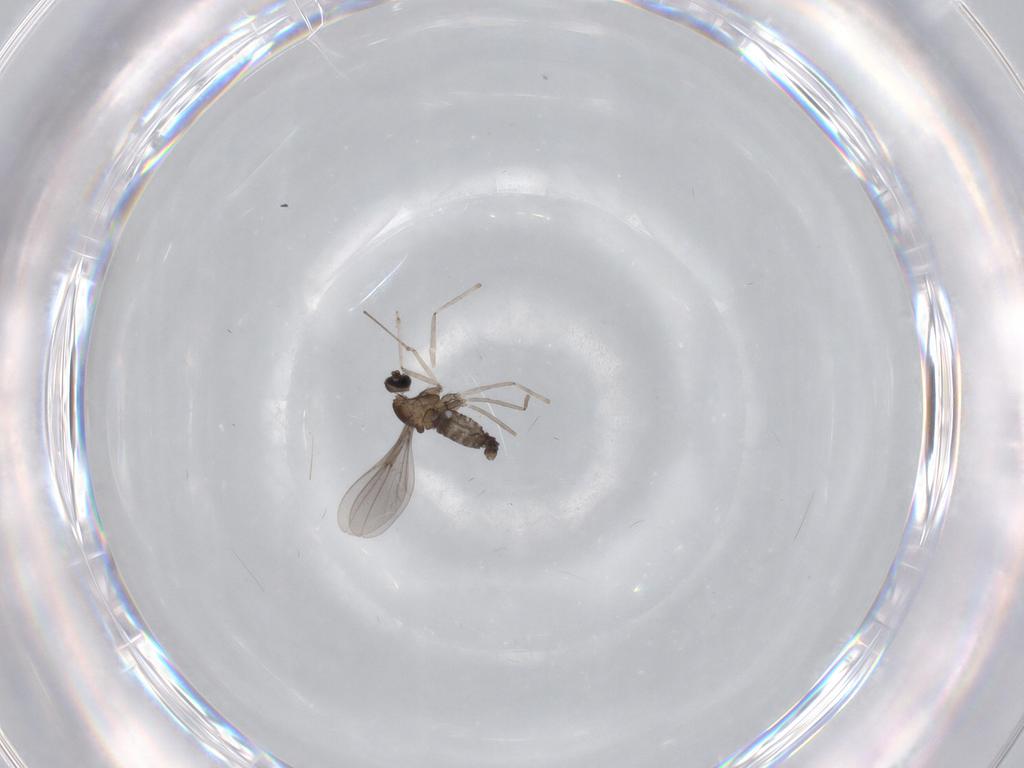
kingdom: Animalia
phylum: Arthropoda
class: Insecta
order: Diptera
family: Cecidomyiidae
